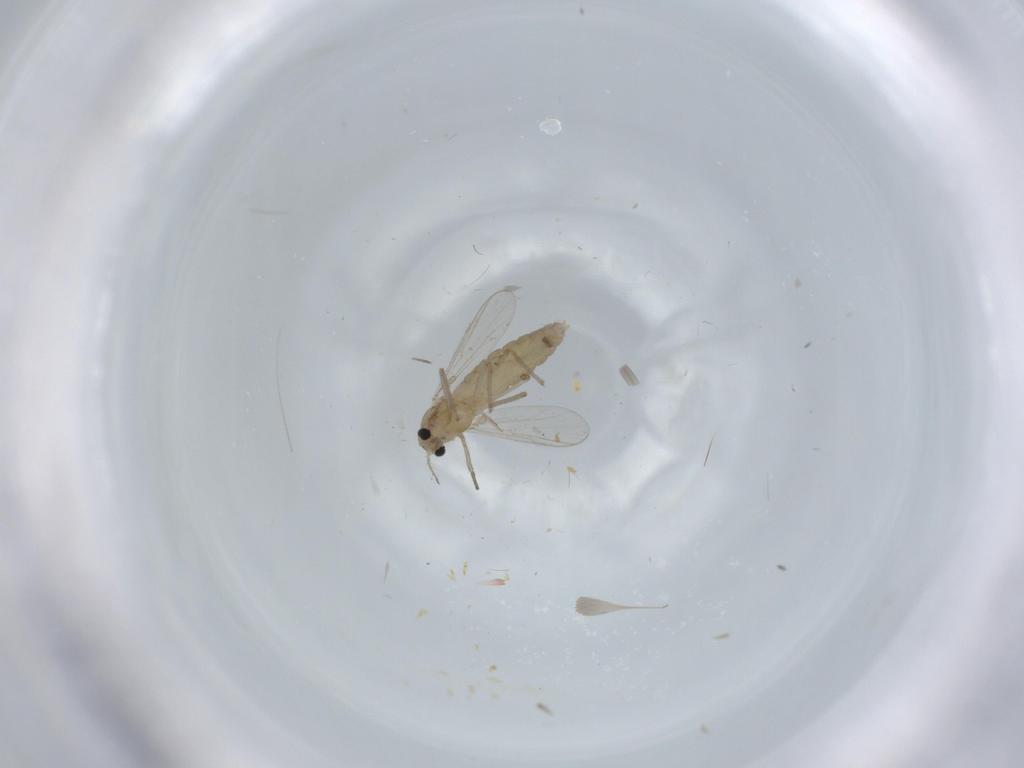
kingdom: Animalia
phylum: Arthropoda
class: Insecta
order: Diptera
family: Chironomidae
